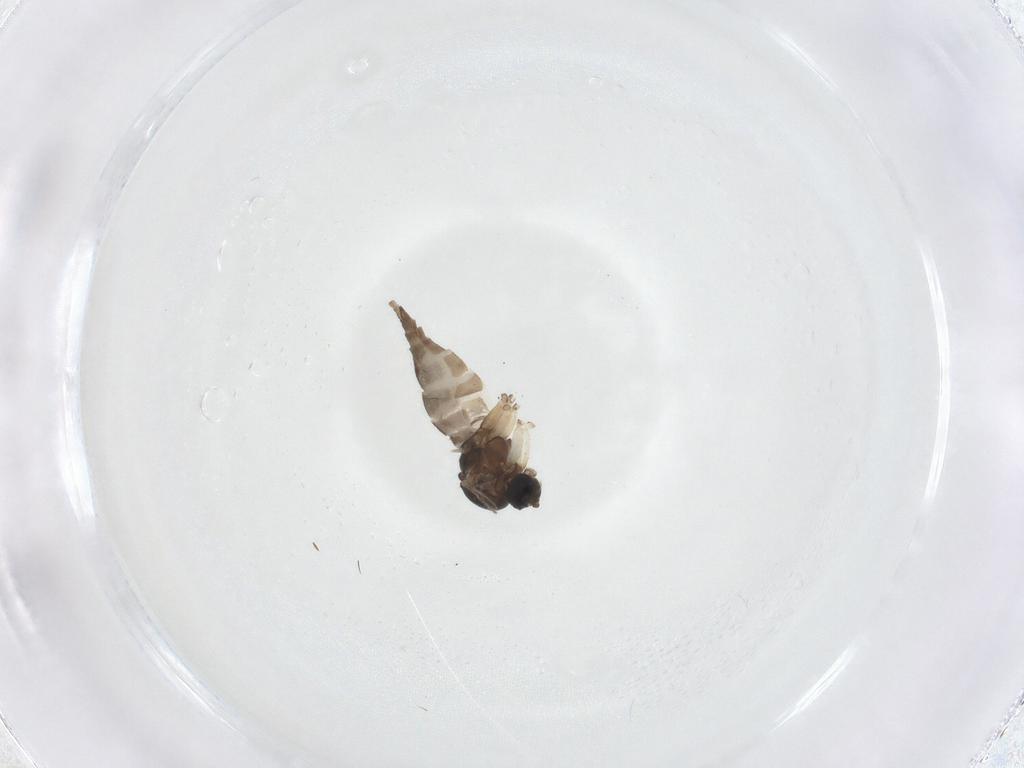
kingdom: Animalia
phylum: Arthropoda
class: Insecta
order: Diptera
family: Sciaridae
